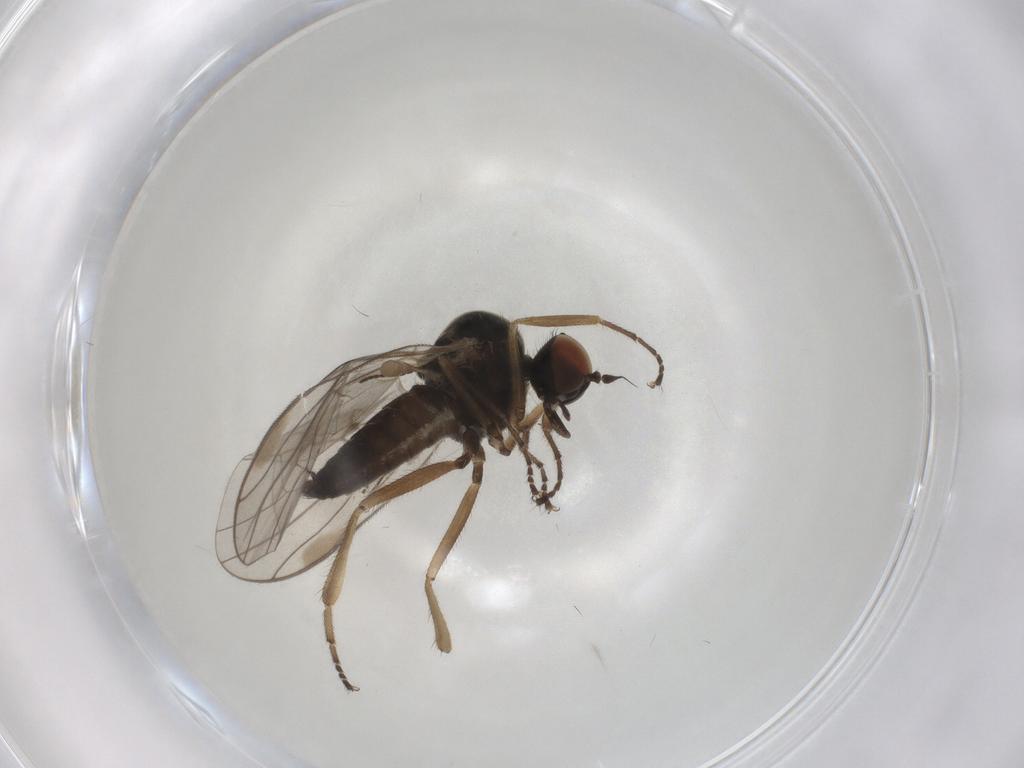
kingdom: Animalia
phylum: Arthropoda
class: Insecta
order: Diptera
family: Hybotidae
